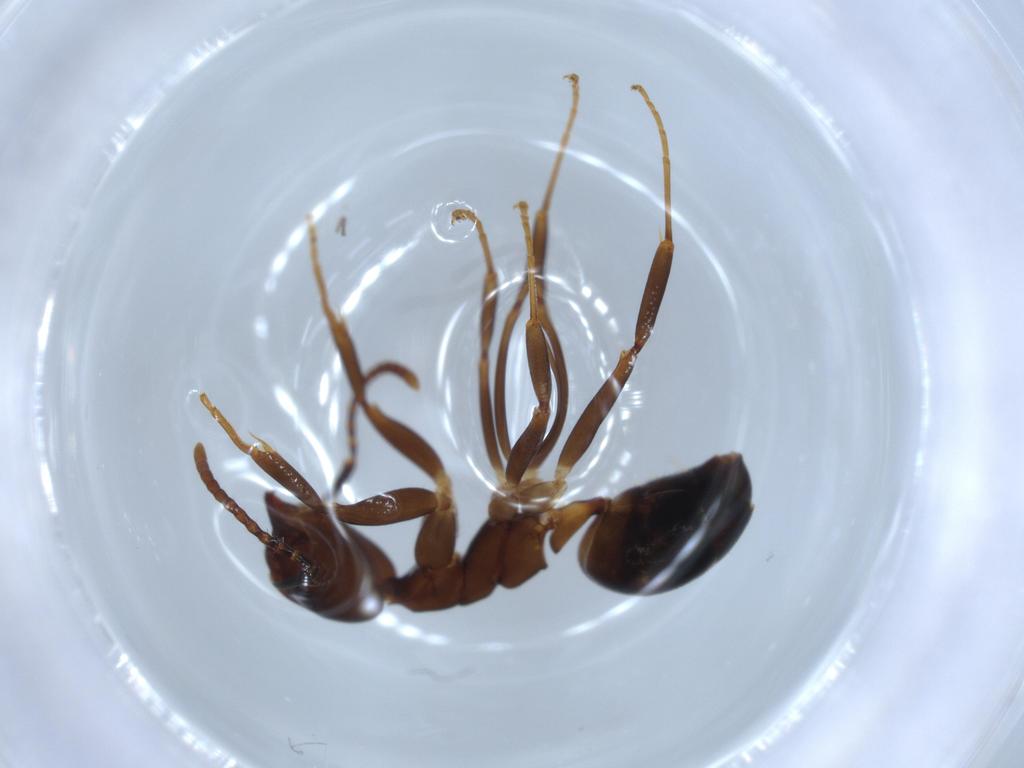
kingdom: Animalia
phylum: Arthropoda
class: Insecta
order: Hymenoptera
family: Formicidae
